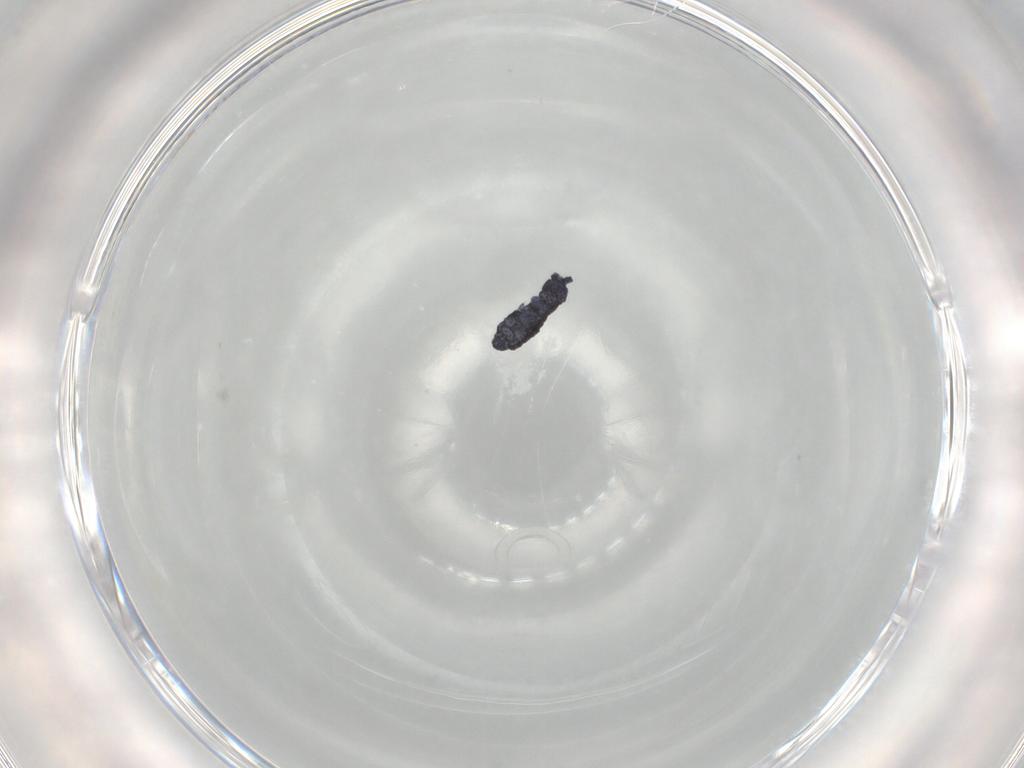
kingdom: Animalia
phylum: Arthropoda
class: Collembola
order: Poduromorpha
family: Hypogastruridae
